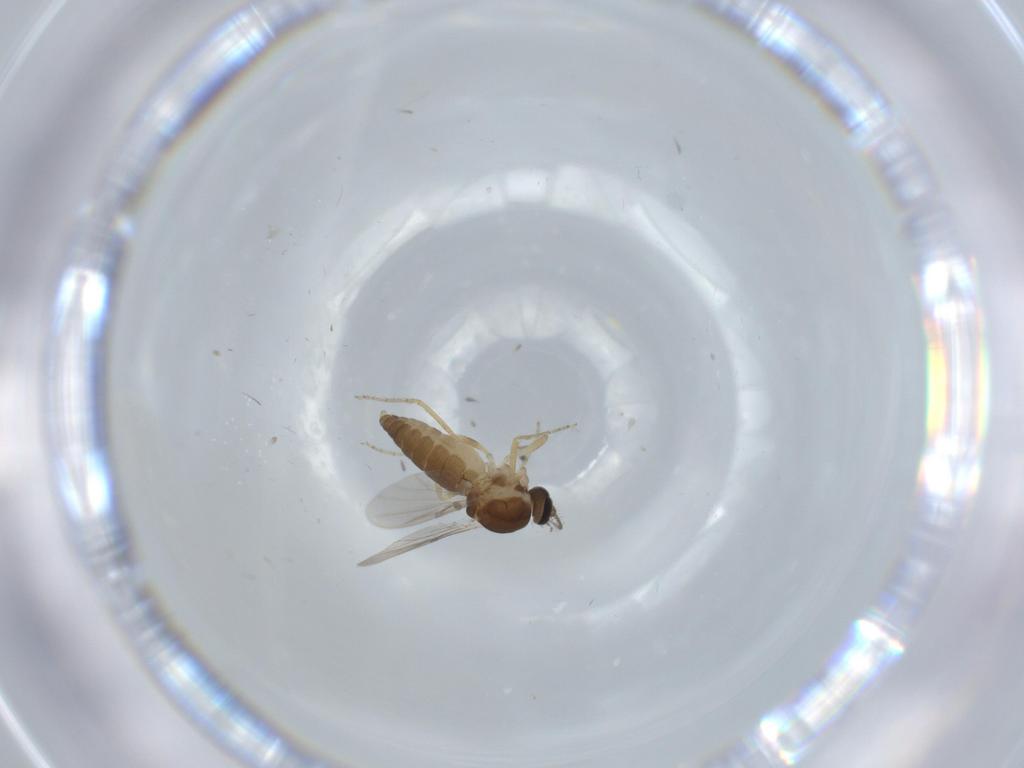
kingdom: Animalia
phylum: Arthropoda
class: Insecta
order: Diptera
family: Ceratopogonidae
